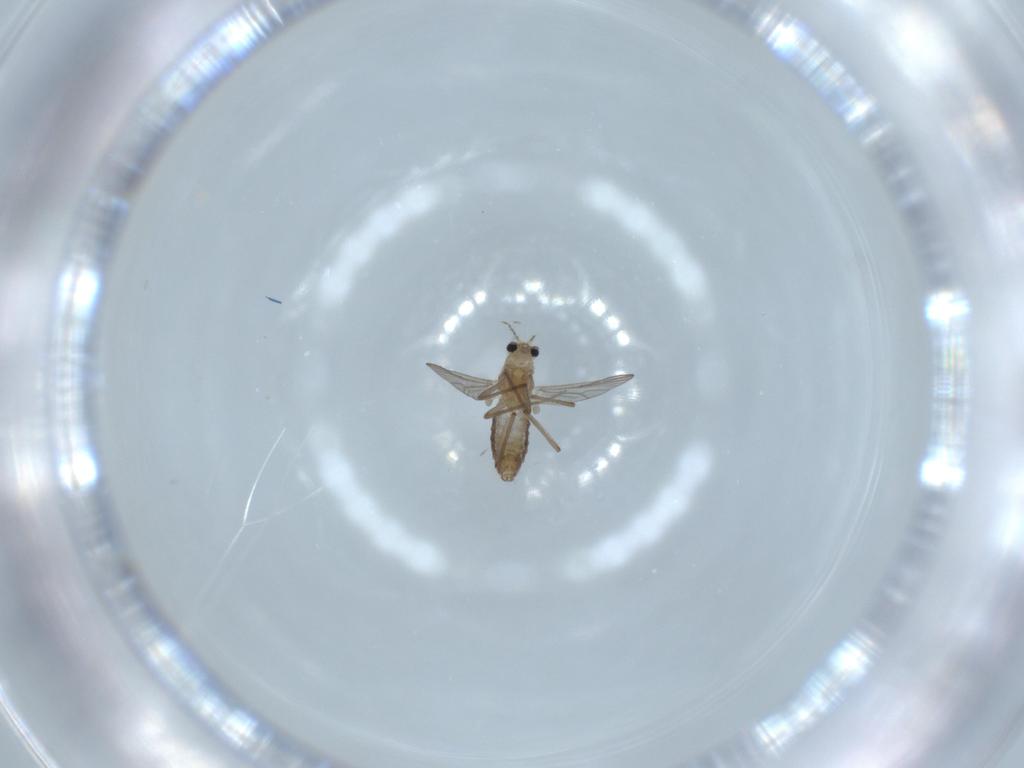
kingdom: Animalia
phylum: Arthropoda
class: Insecta
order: Diptera
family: Chironomidae
